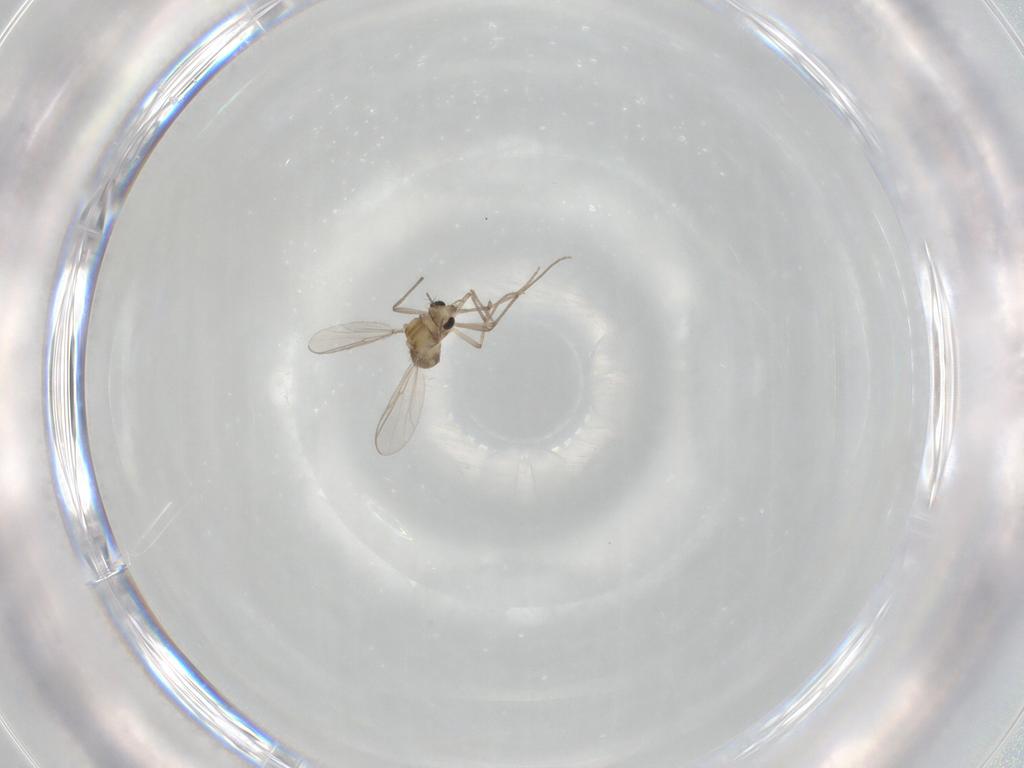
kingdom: Animalia
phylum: Arthropoda
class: Insecta
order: Diptera
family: Chironomidae
